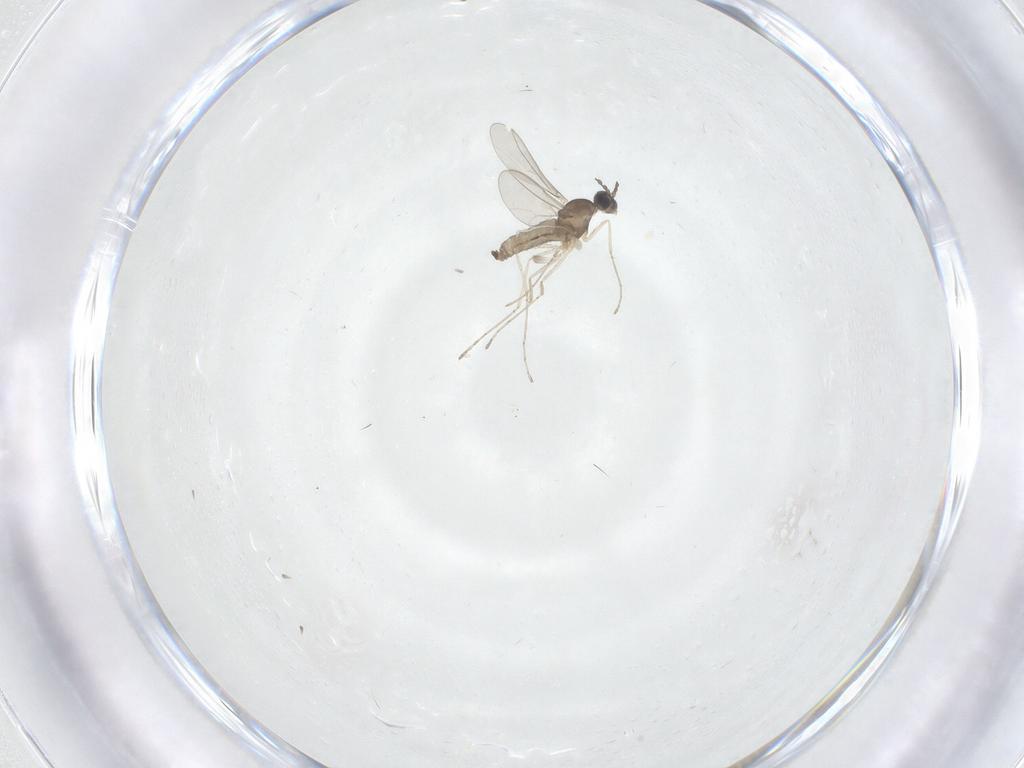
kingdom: Animalia
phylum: Arthropoda
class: Insecta
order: Diptera
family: Cecidomyiidae
